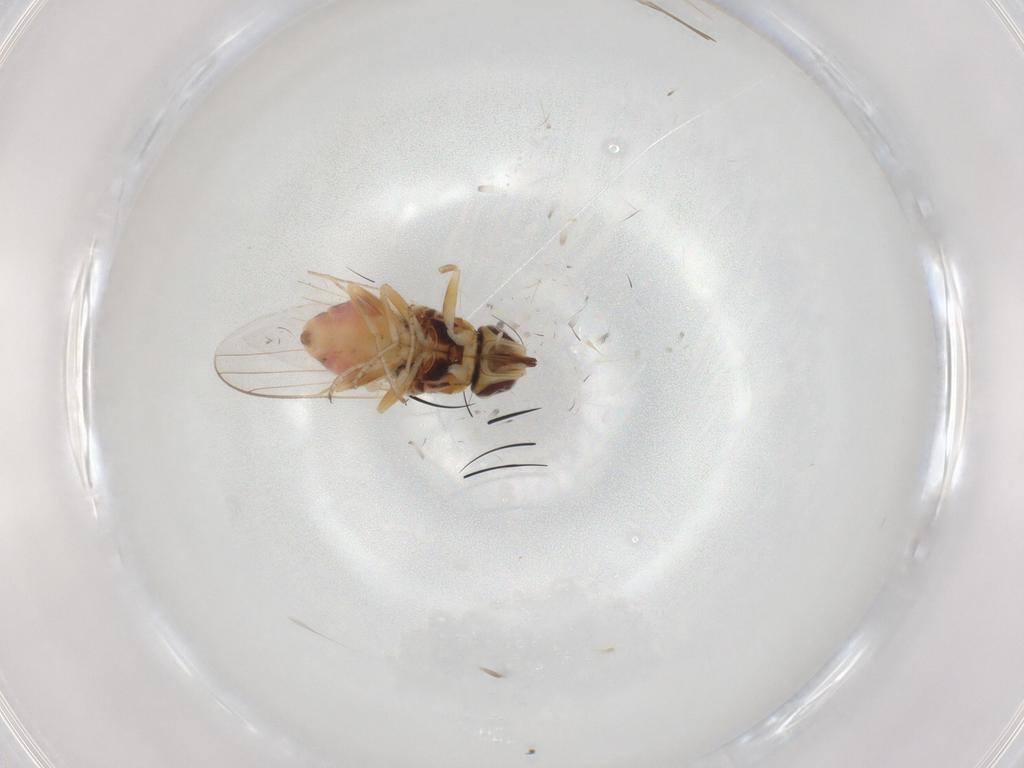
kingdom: Animalia
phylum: Arthropoda
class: Insecta
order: Diptera
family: Chloropidae
